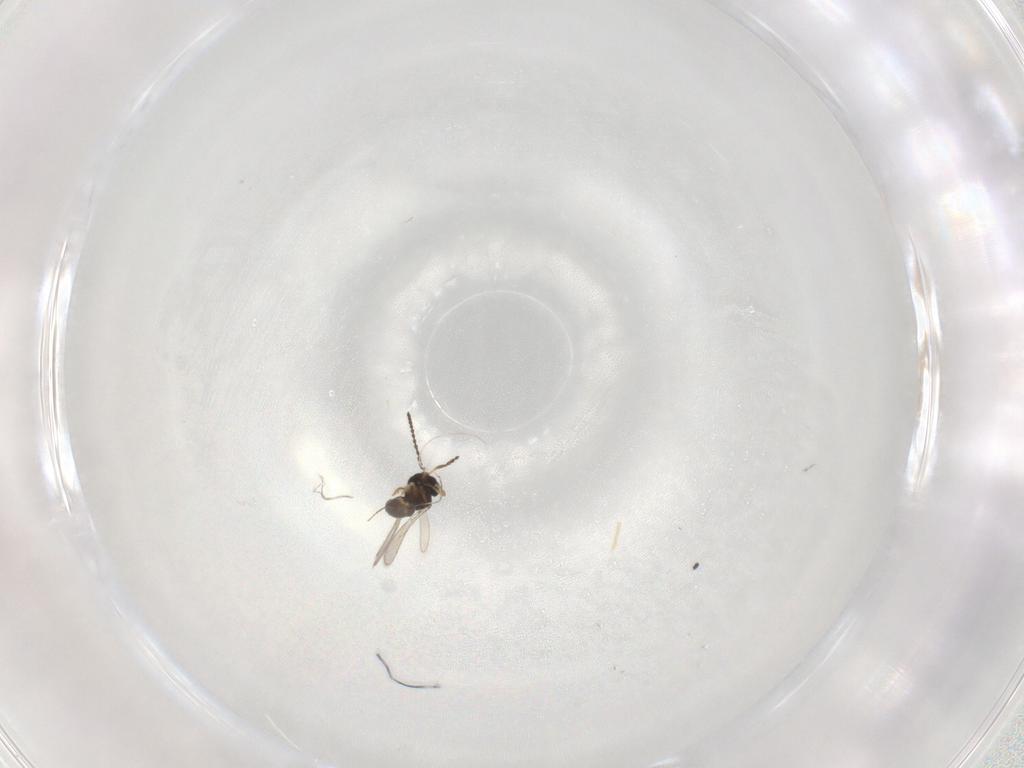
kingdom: Animalia
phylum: Arthropoda
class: Insecta
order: Hymenoptera
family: Scelionidae
